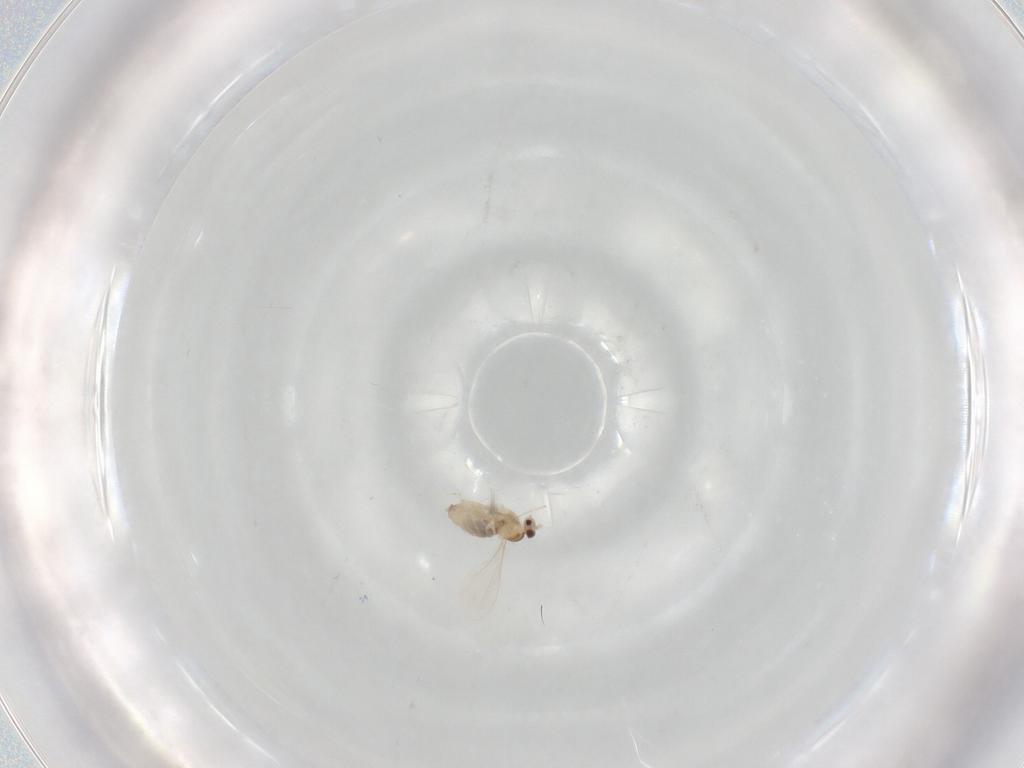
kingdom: Animalia
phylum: Arthropoda
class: Insecta
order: Diptera
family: Cecidomyiidae
